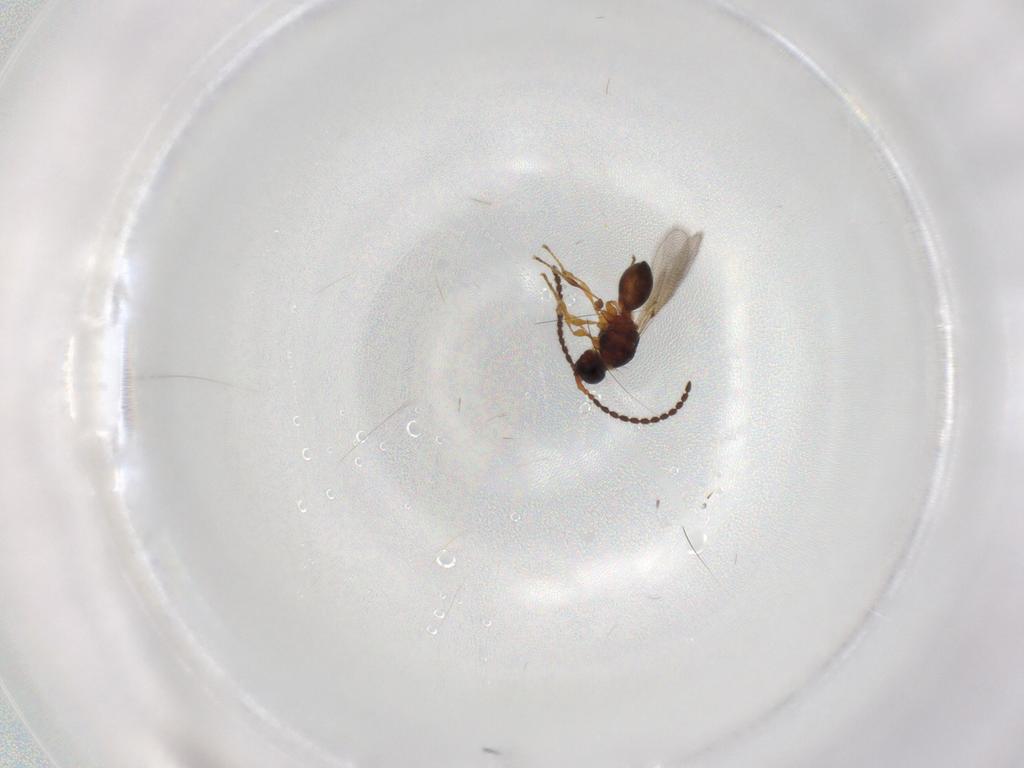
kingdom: Animalia
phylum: Arthropoda
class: Insecta
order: Hymenoptera
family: Diapriidae
